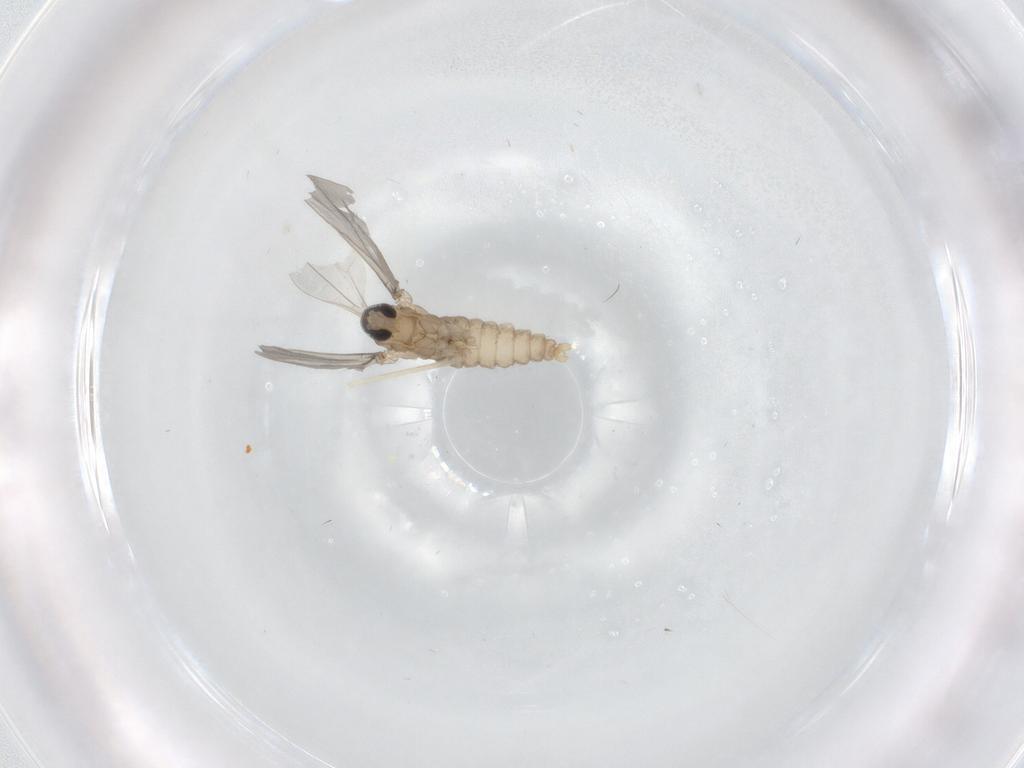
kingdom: Animalia
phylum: Arthropoda
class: Insecta
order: Diptera
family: Cecidomyiidae
